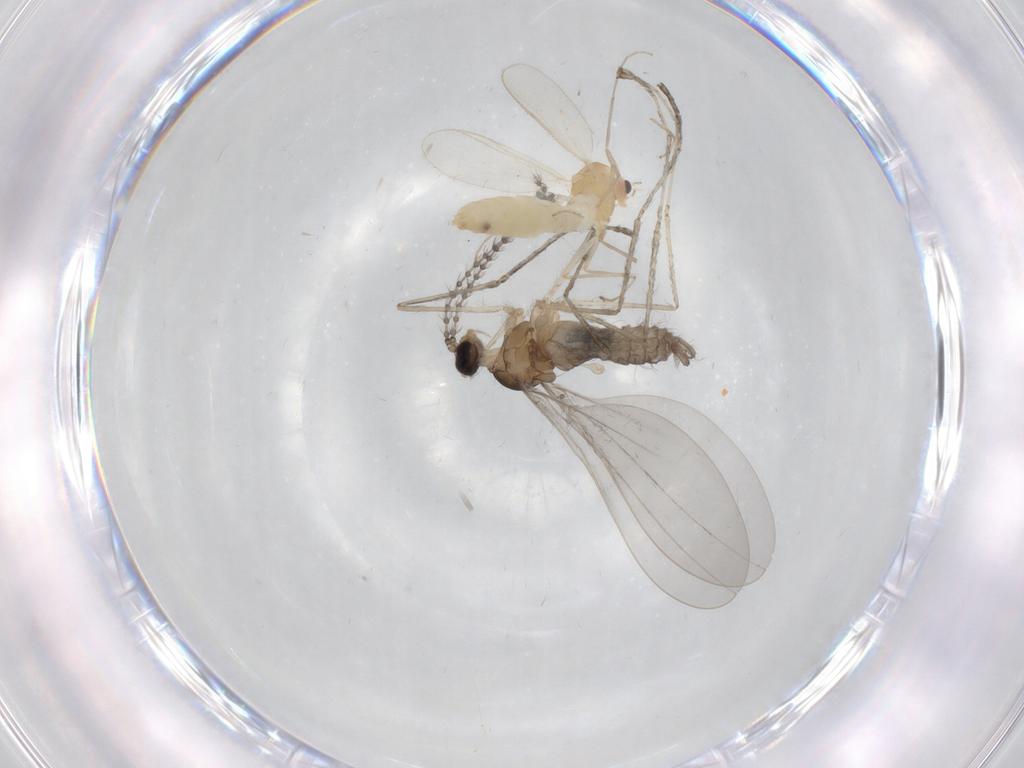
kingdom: Animalia
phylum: Arthropoda
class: Insecta
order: Diptera
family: Chironomidae
